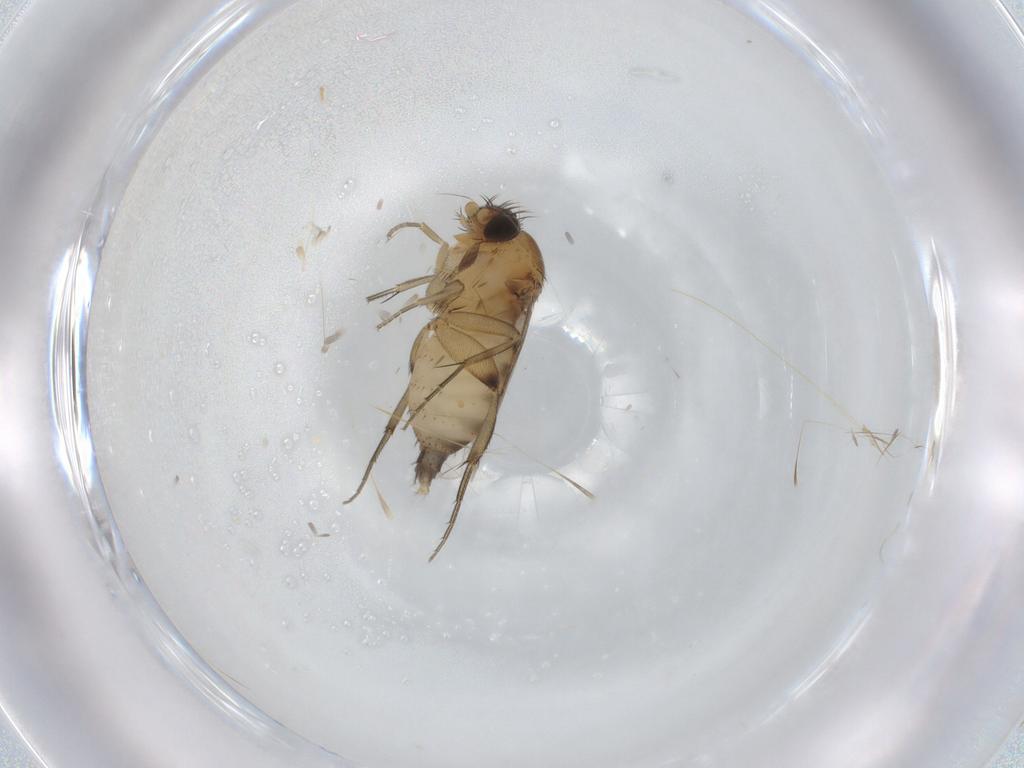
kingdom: Animalia
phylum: Arthropoda
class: Insecta
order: Diptera
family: Phoridae
